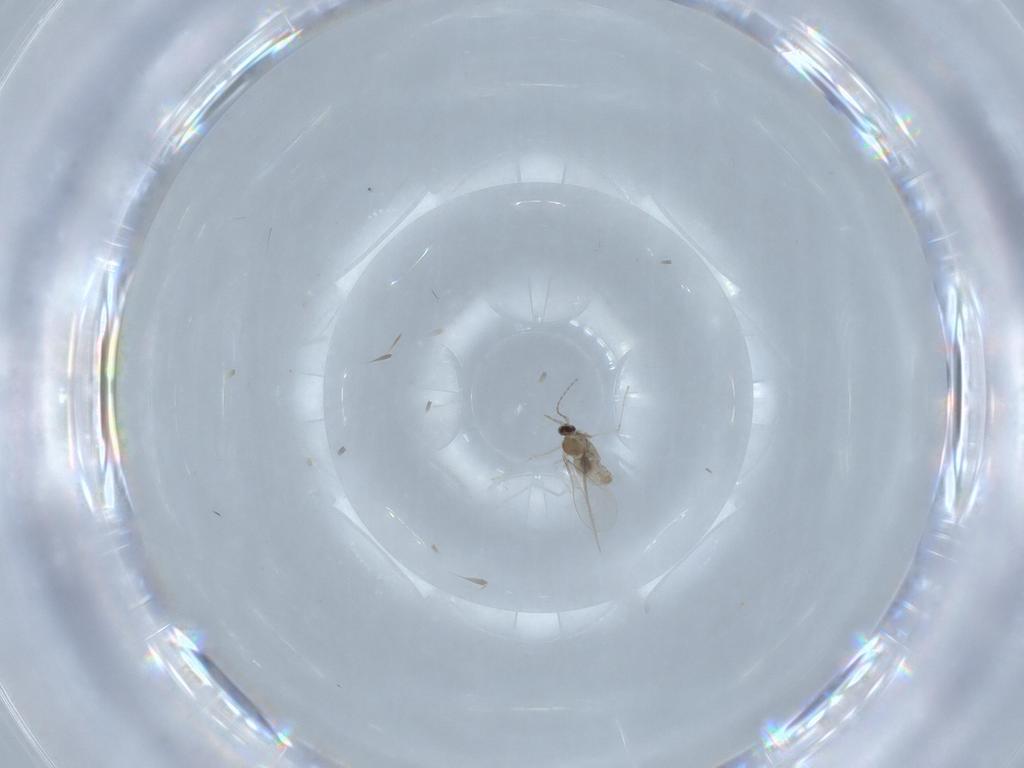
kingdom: Animalia
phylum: Arthropoda
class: Insecta
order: Diptera
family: Cecidomyiidae
